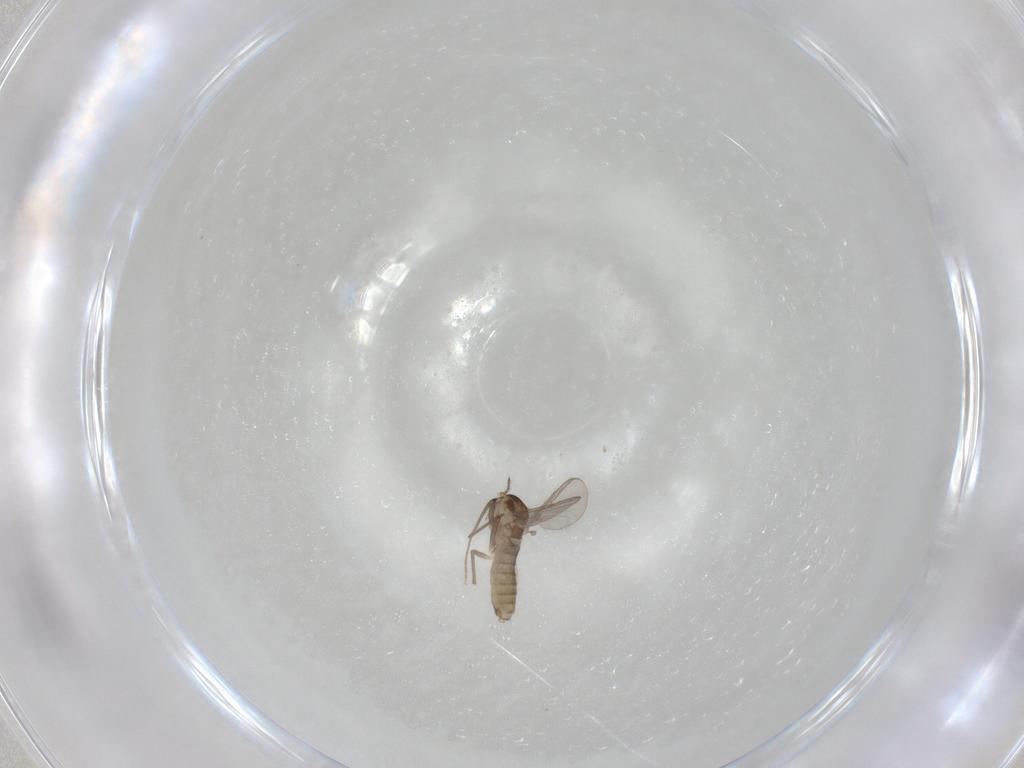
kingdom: Animalia
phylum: Arthropoda
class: Insecta
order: Diptera
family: Chironomidae
